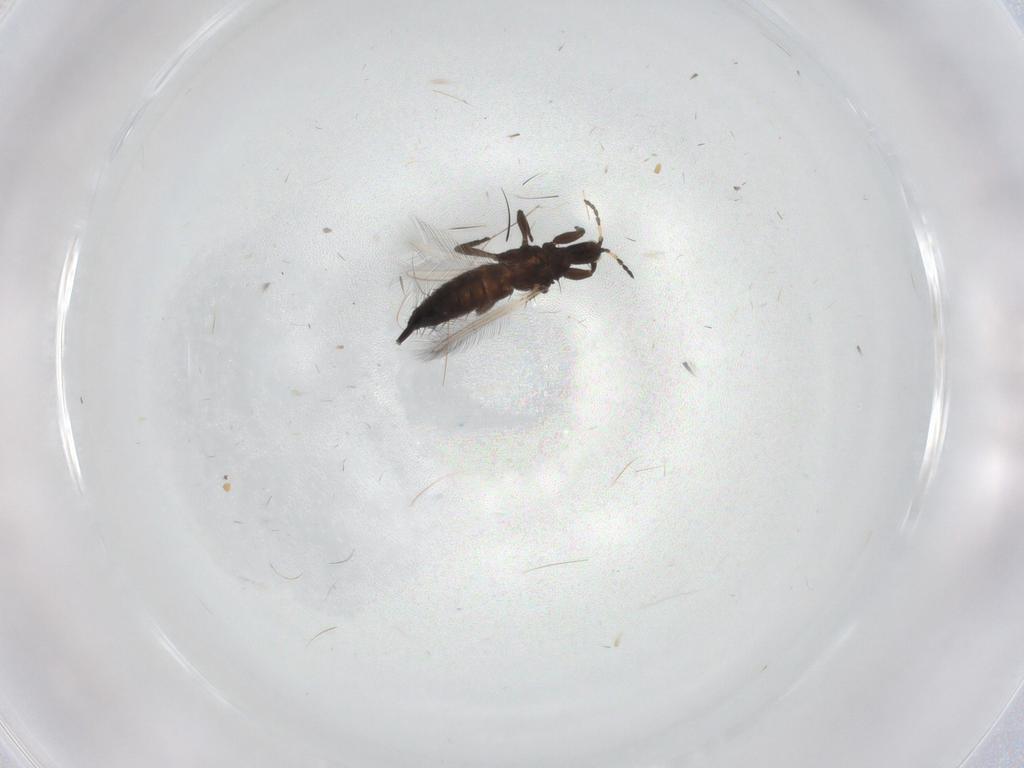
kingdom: Animalia
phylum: Arthropoda
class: Insecta
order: Thysanoptera
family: Phlaeothripidae
